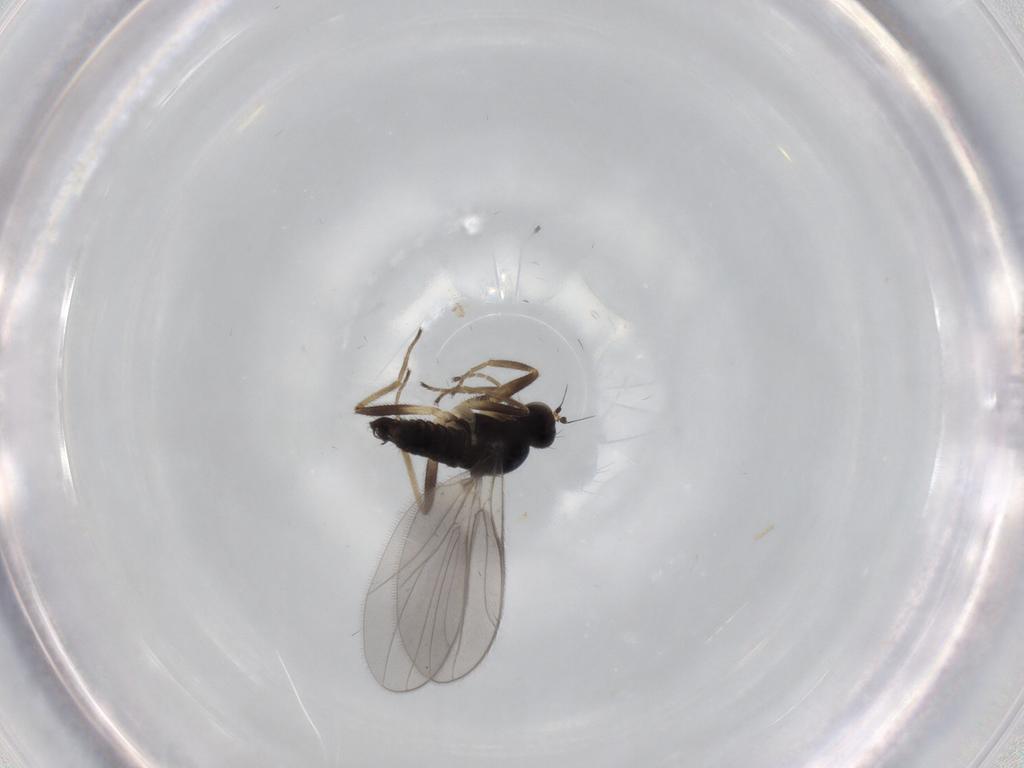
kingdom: Animalia
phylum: Arthropoda
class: Insecta
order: Diptera
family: Hybotidae
